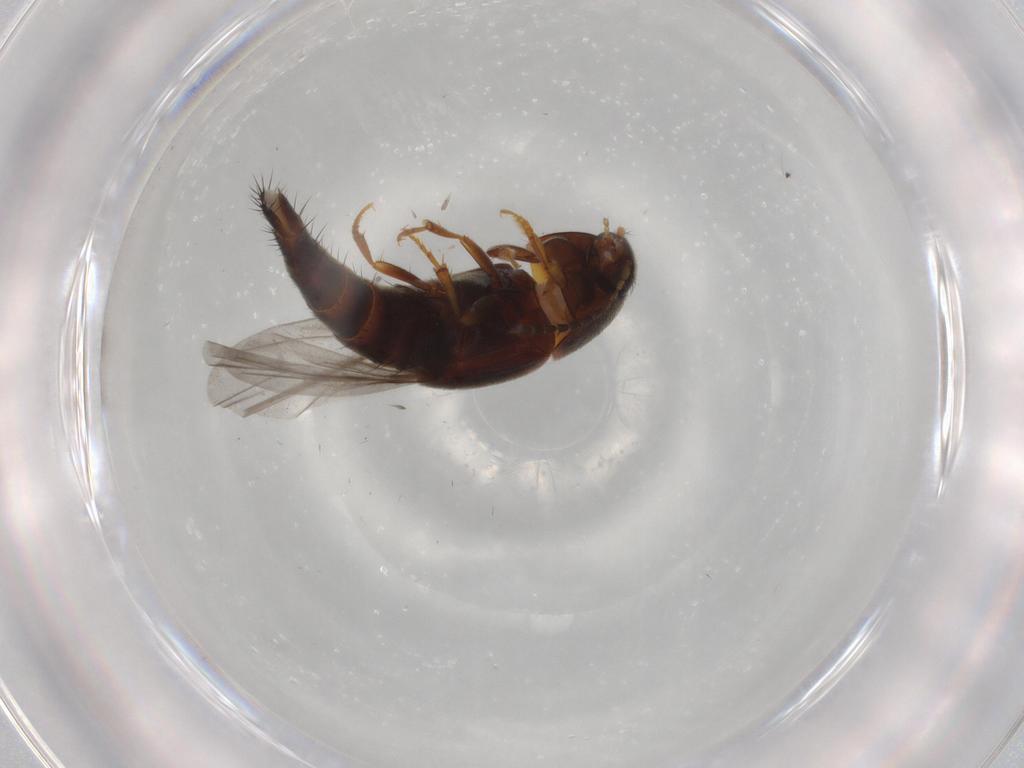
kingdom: Animalia
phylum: Arthropoda
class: Insecta
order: Coleoptera
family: Staphylinidae
